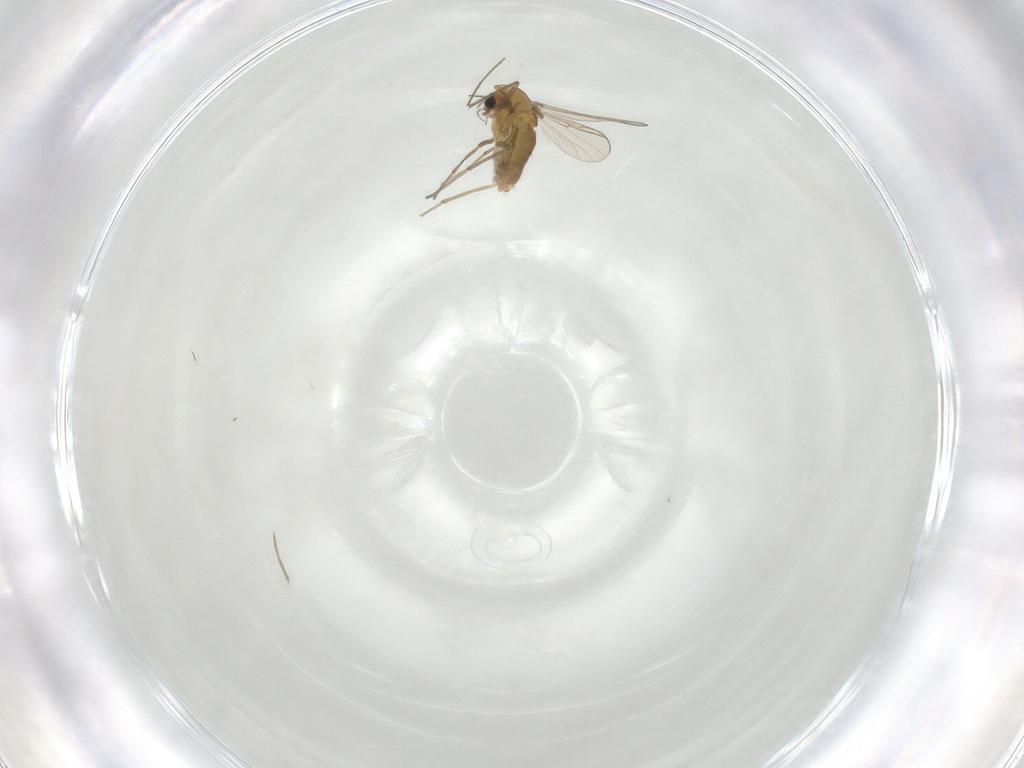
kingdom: Animalia
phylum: Arthropoda
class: Insecta
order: Diptera
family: Chironomidae
